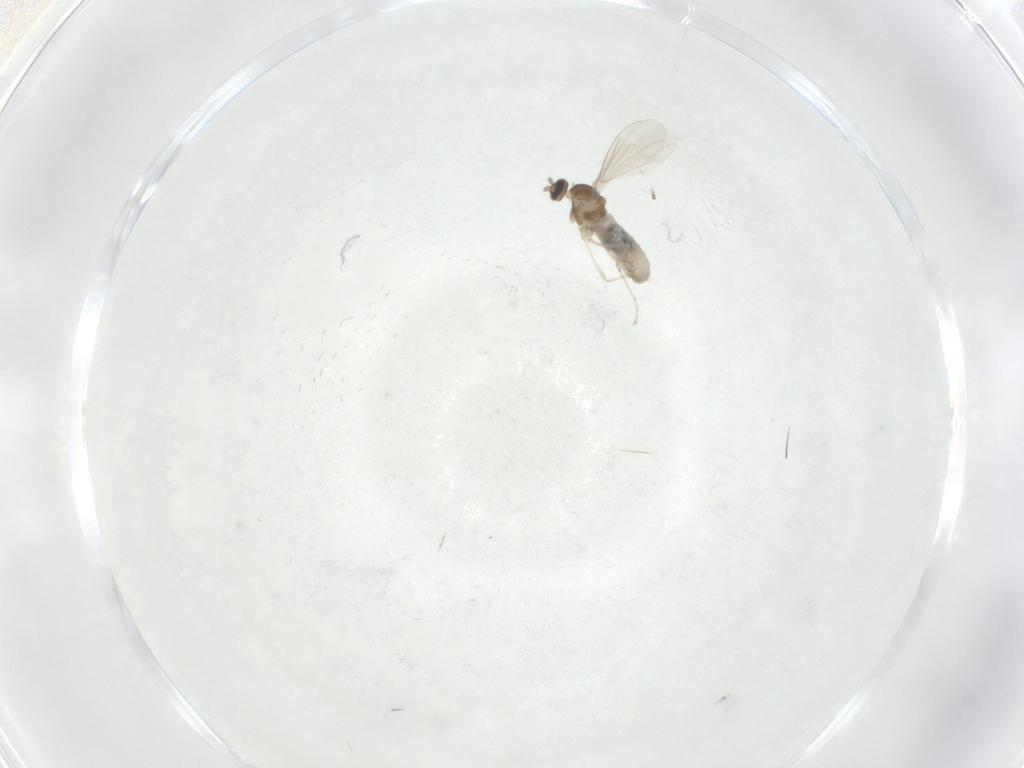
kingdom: Animalia
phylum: Arthropoda
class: Insecta
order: Diptera
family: Cecidomyiidae
